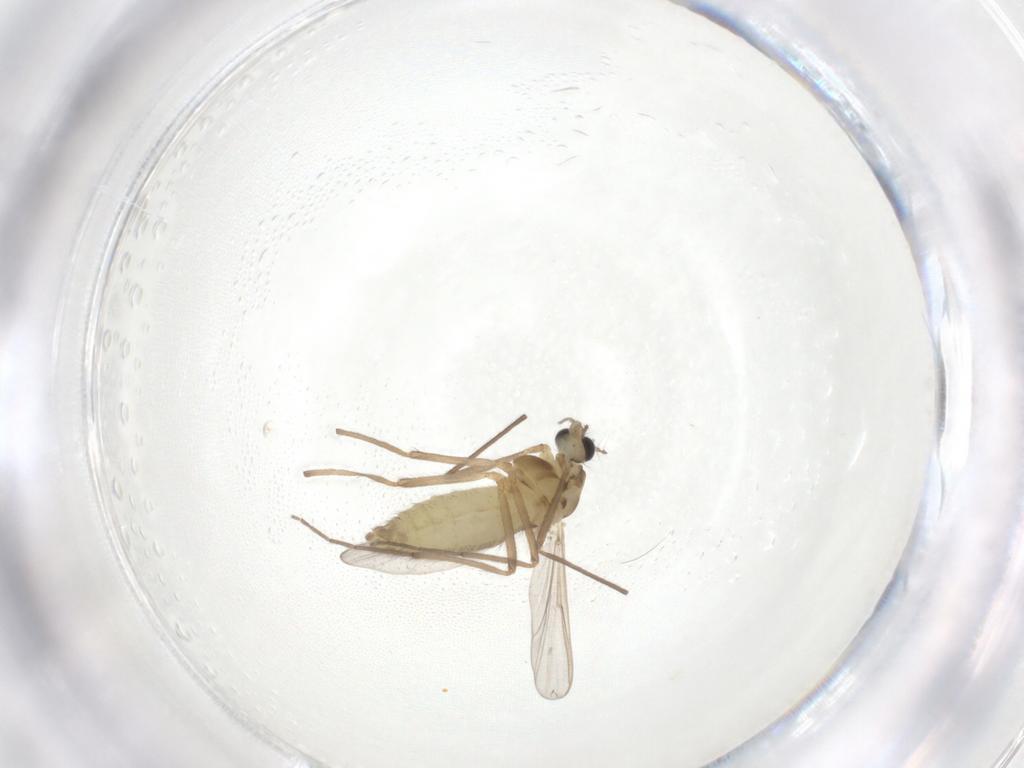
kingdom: Animalia
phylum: Arthropoda
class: Insecta
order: Diptera
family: Chironomidae
